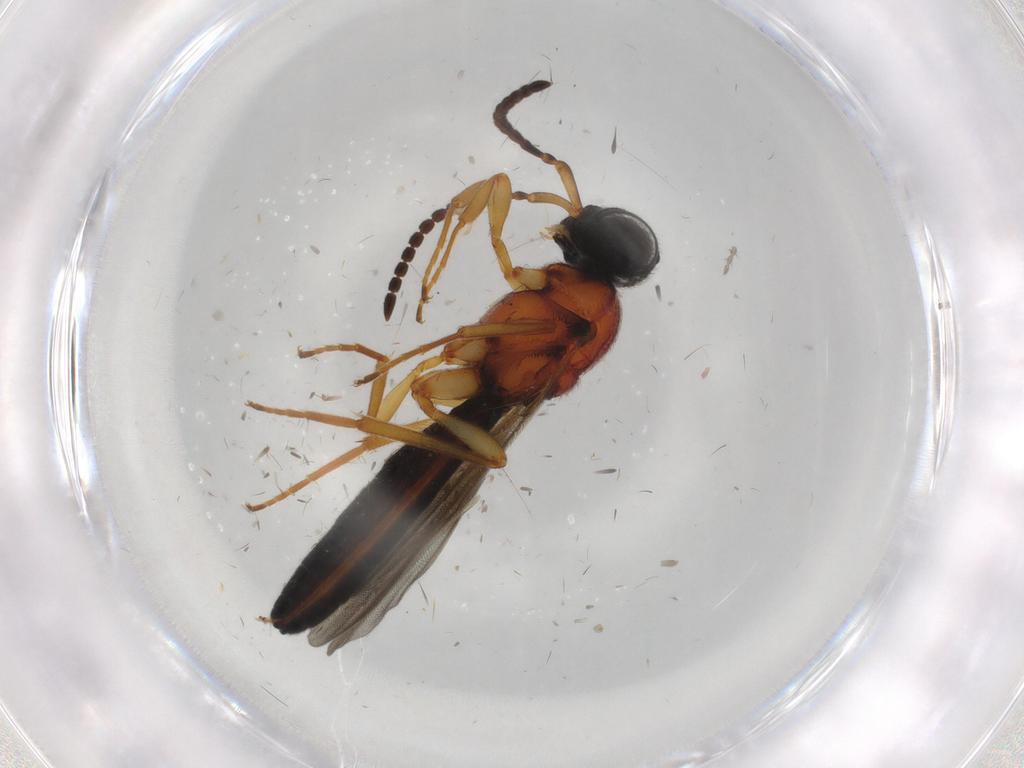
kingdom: Animalia
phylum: Arthropoda
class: Insecta
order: Hymenoptera
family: Scelionidae
